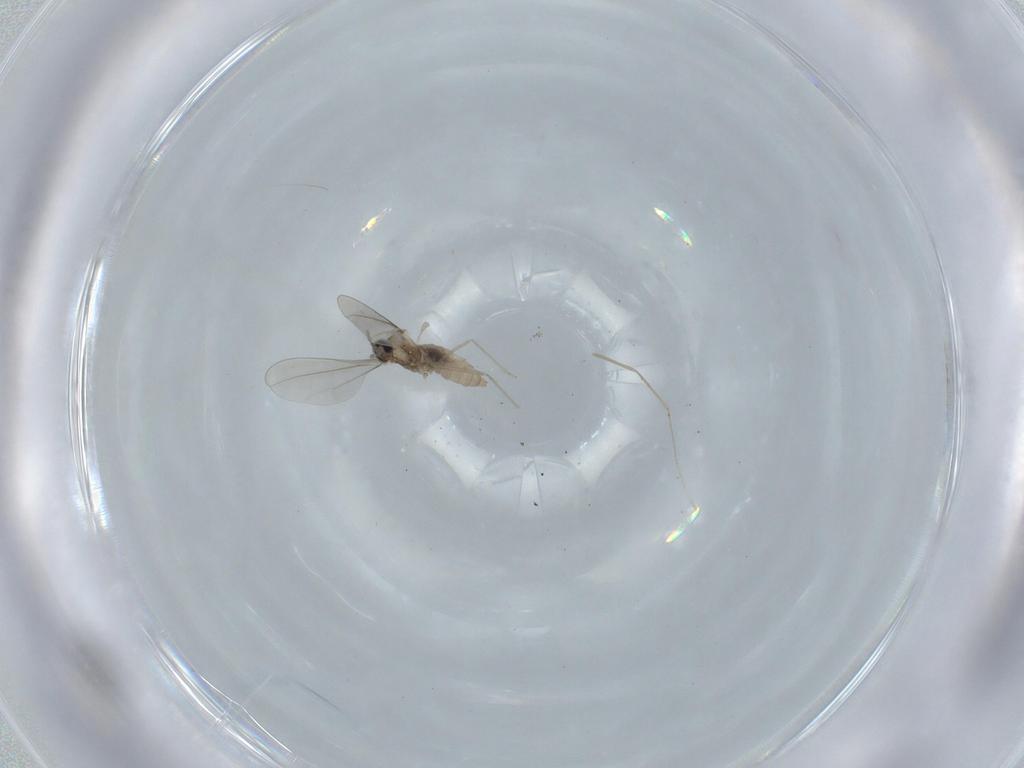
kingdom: Animalia
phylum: Arthropoda
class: Insecta
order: Diptera
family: Cecidomyiidae
